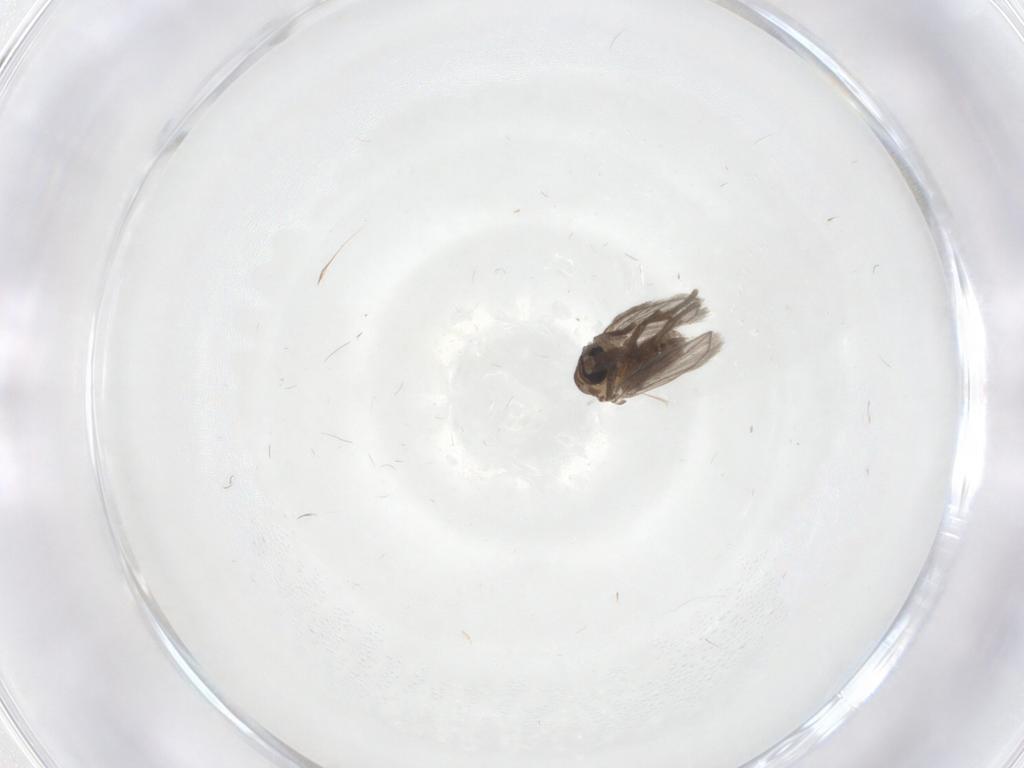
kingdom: Animalia
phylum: Arthropoda
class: Insecta
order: Diptera
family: Psychodidae
